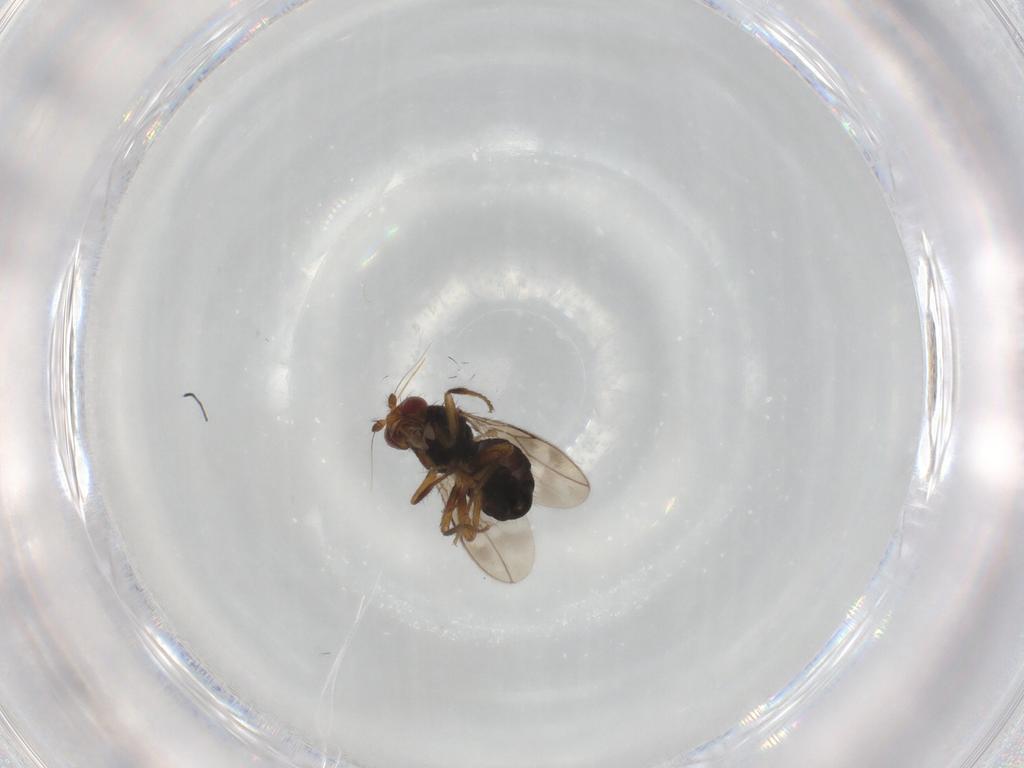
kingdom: Animalia
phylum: Arthropoda
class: Insecta
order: Diptera
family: Sphaeroceridae
